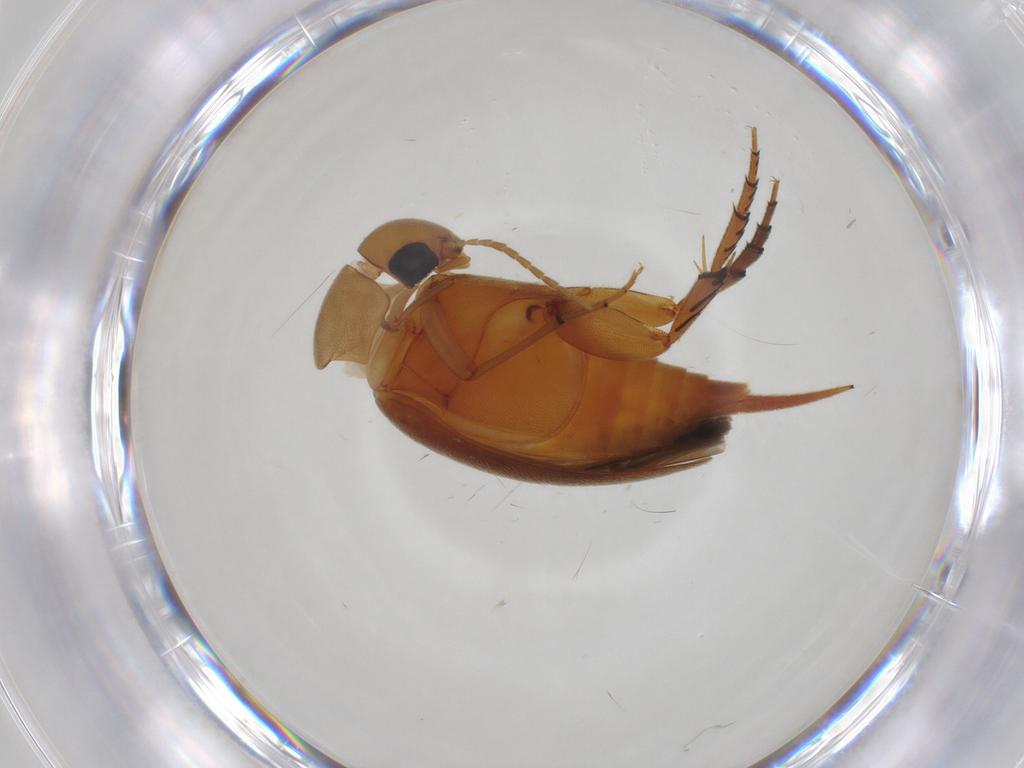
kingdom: Animalia
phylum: Arthropoda
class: Insecta
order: Coleoptera
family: Mordellidae
